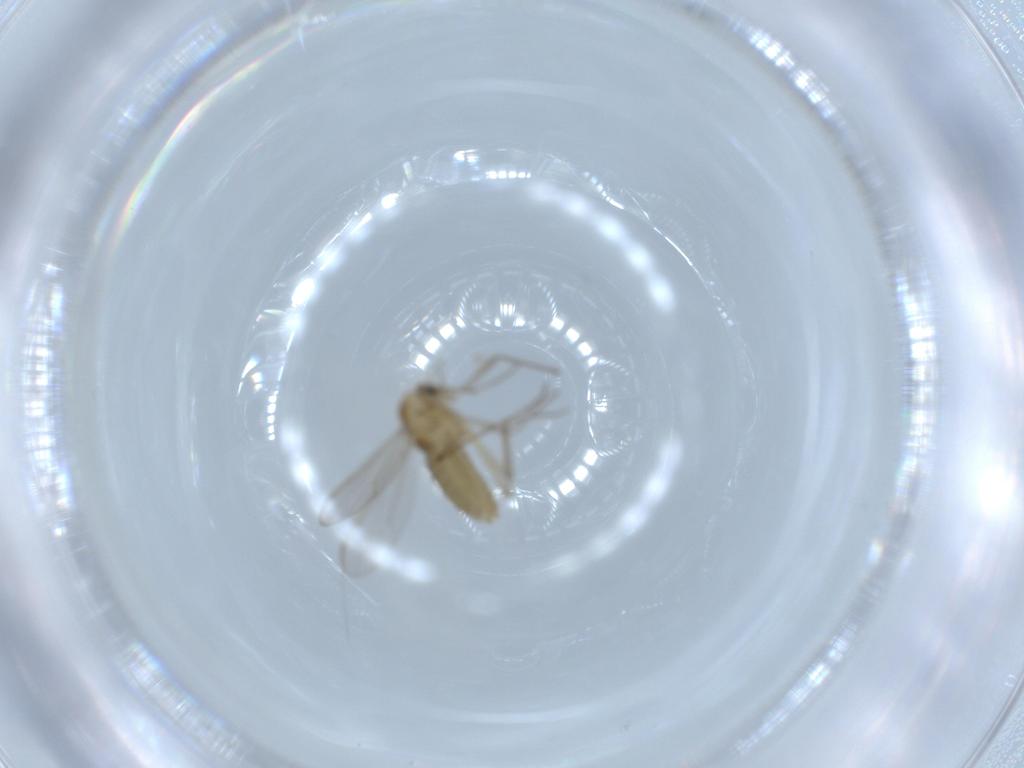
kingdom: Animalia
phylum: Arthropoda
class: Insecta
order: Diptera
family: Chironomidae
